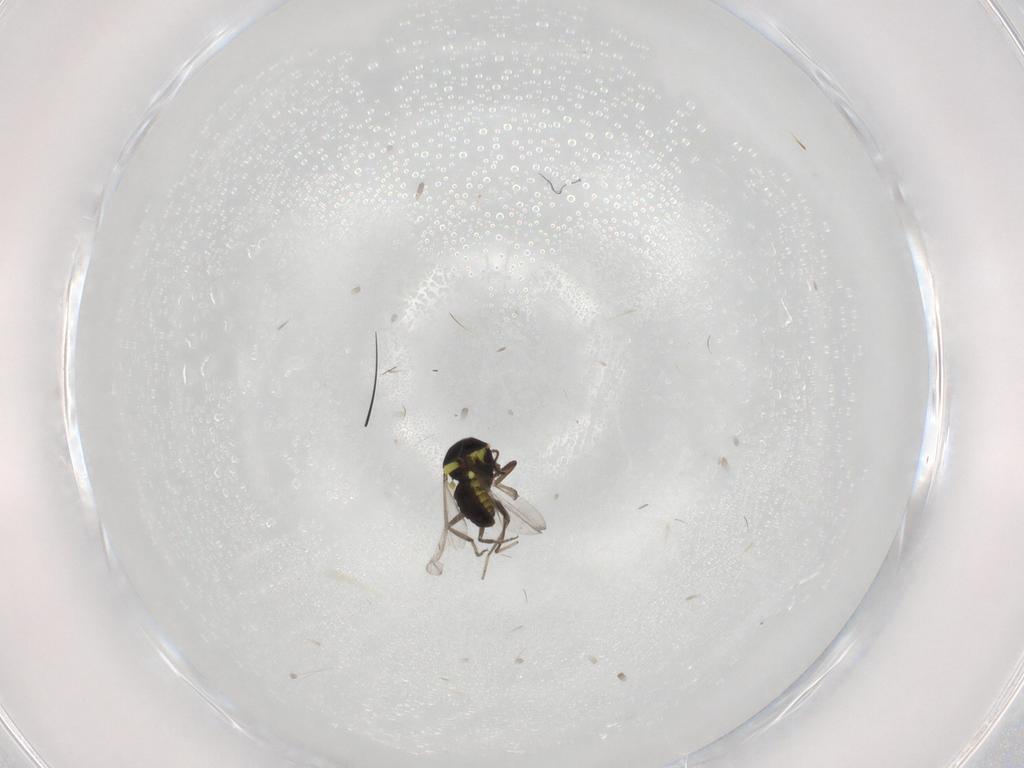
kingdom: Animalia
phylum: Arthropoda
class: Insecta
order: Diptera
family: Ceratopogonidae
